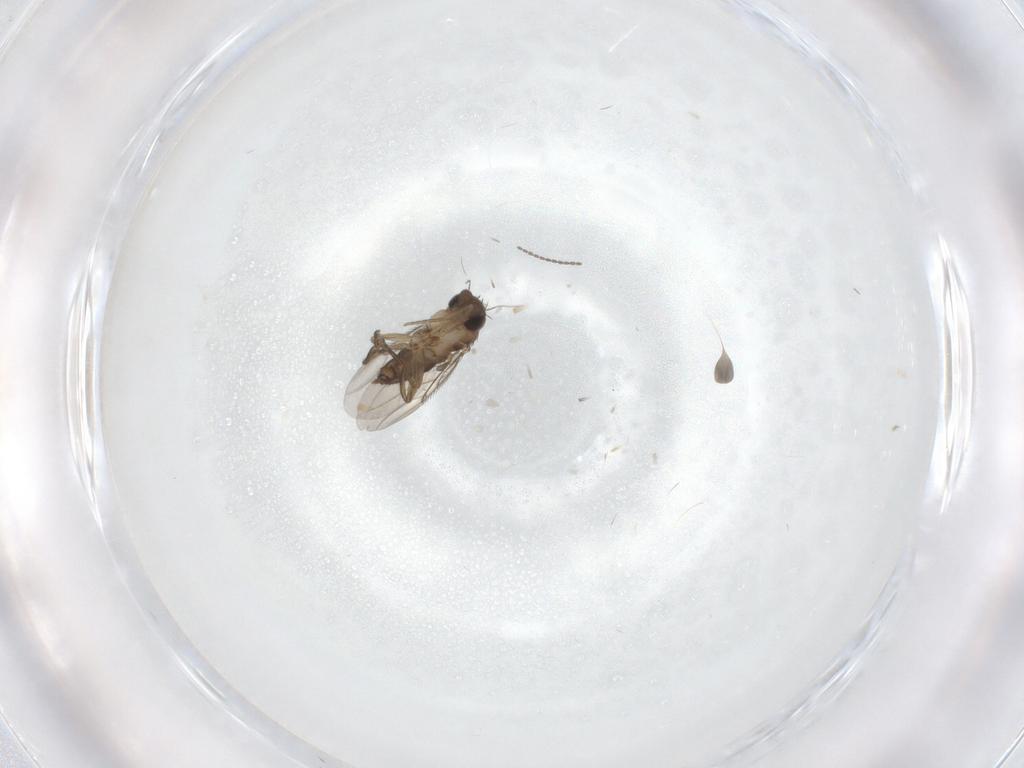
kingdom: Animalia
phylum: Arthropoda
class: Insecta
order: Diptera
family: Phoridae
